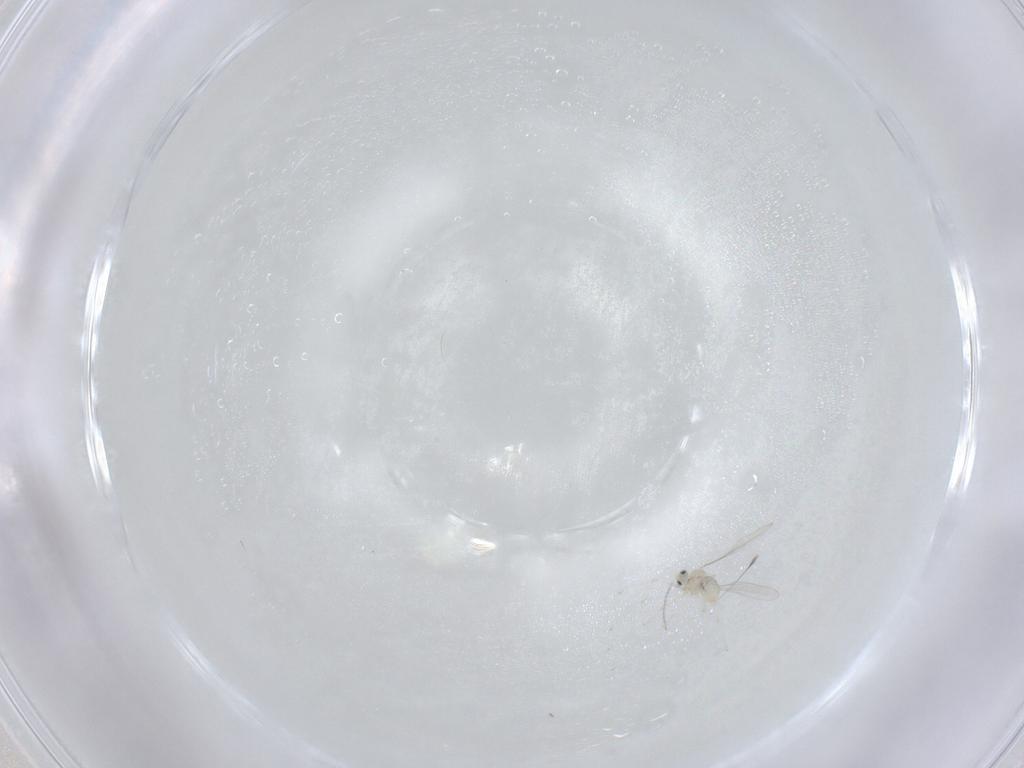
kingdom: Animalia
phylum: Arthropoda
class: Insecta
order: Diptera
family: Cecidomyiidae
